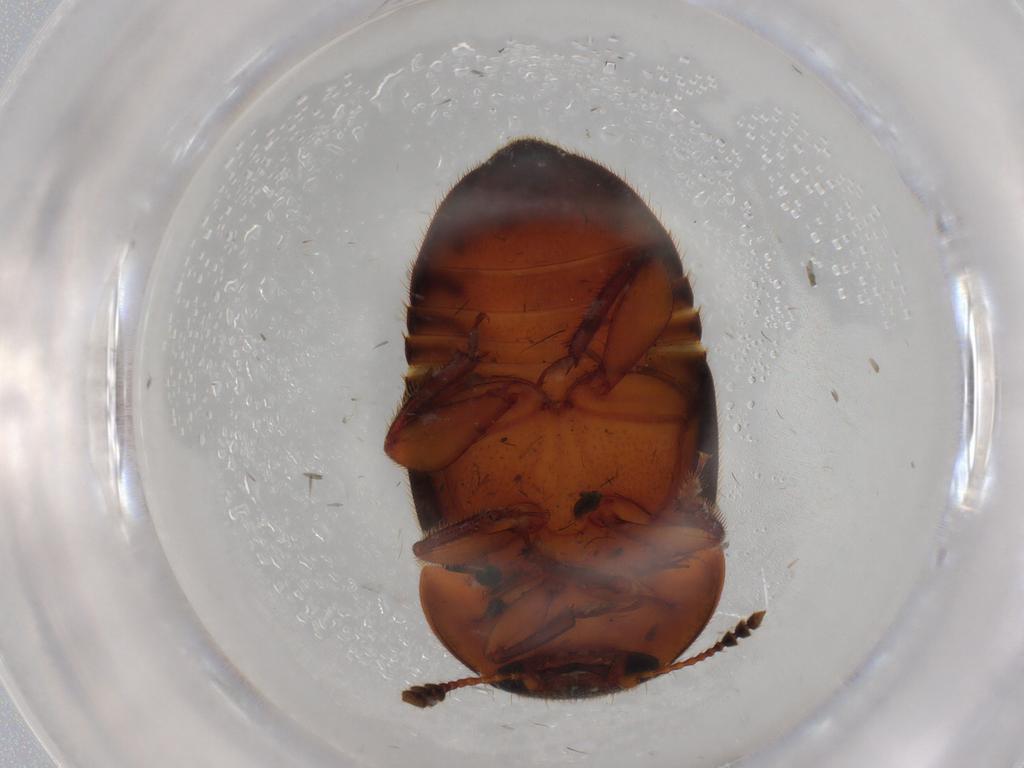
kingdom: Animalia
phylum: Arthropoda
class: Insecta
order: Coleoptera
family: Nitidulidae
